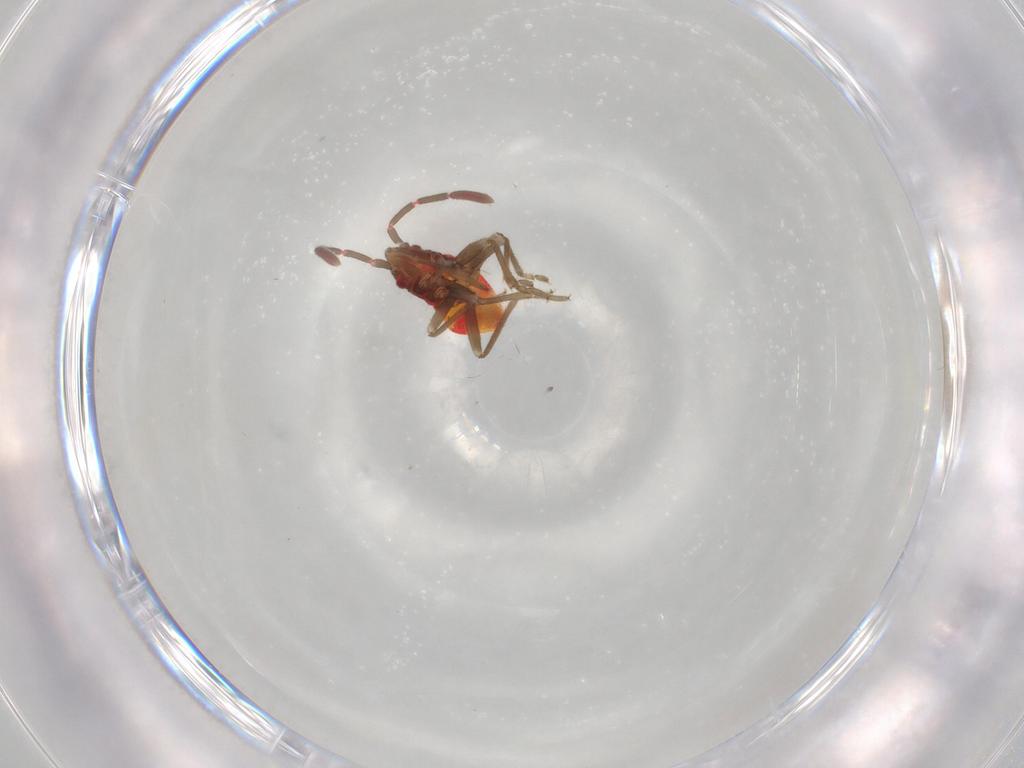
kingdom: Animalia
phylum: Arthropoda
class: Insecta
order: Hemiptera
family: Rhyparochromidae
